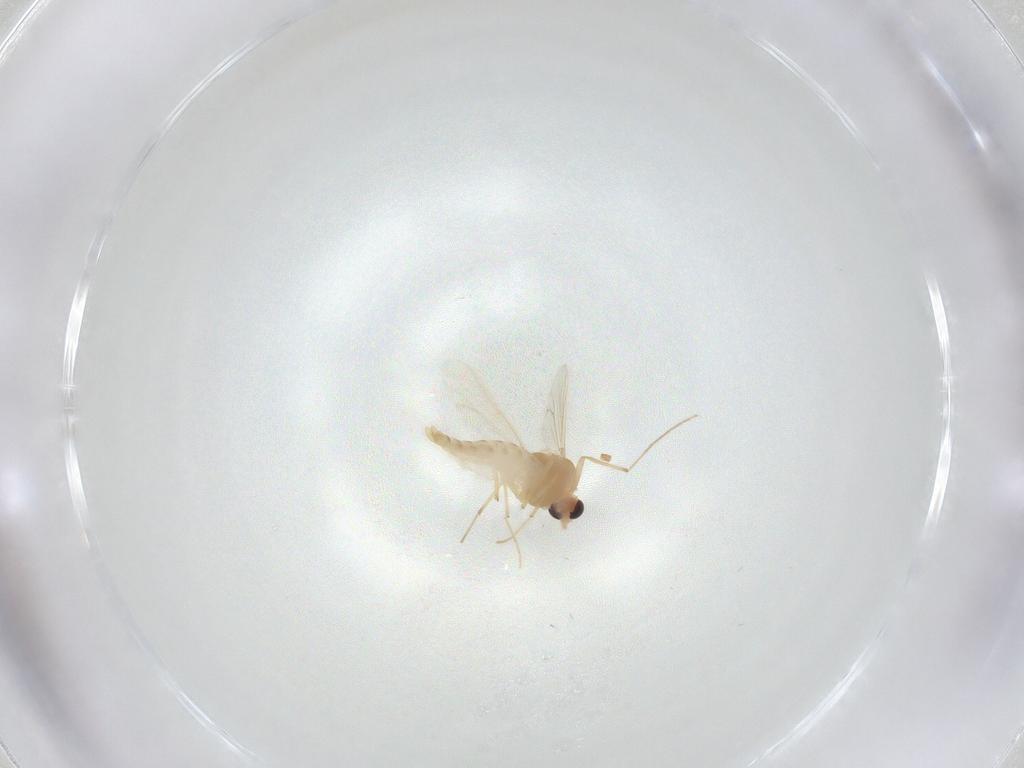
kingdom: Animalia
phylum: Arthropoda
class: Insecta
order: Diptera
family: Chironomidae
